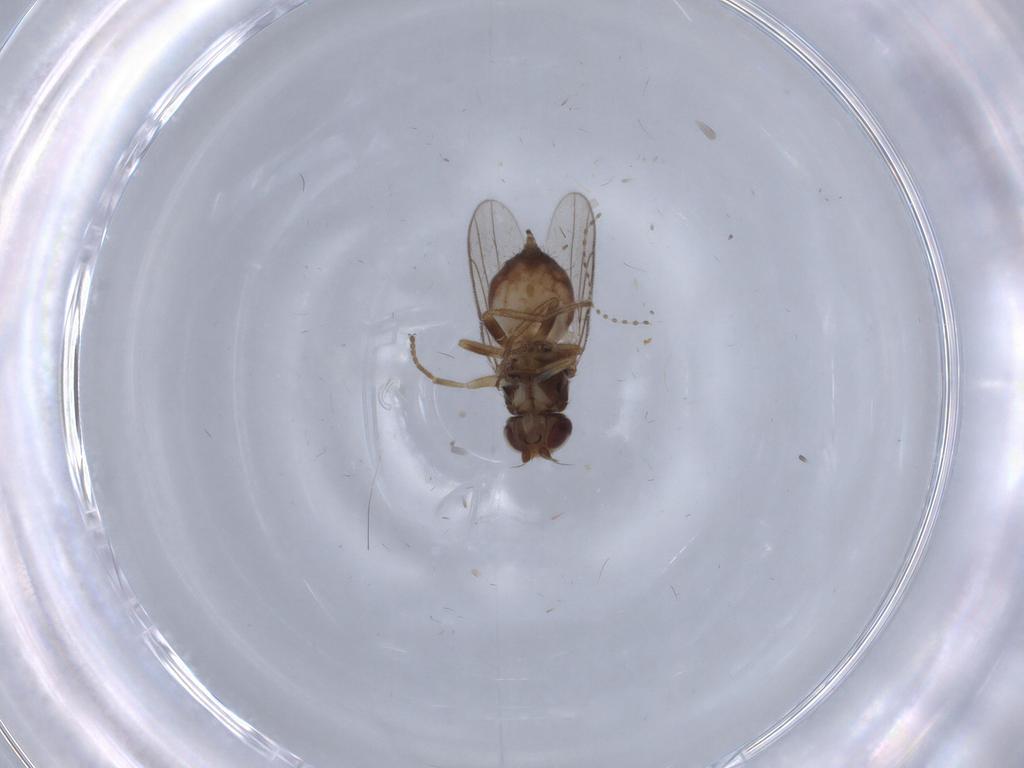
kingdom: Animalia
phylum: Arthropoda
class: Insecta
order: Diptera
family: Chloropidae
